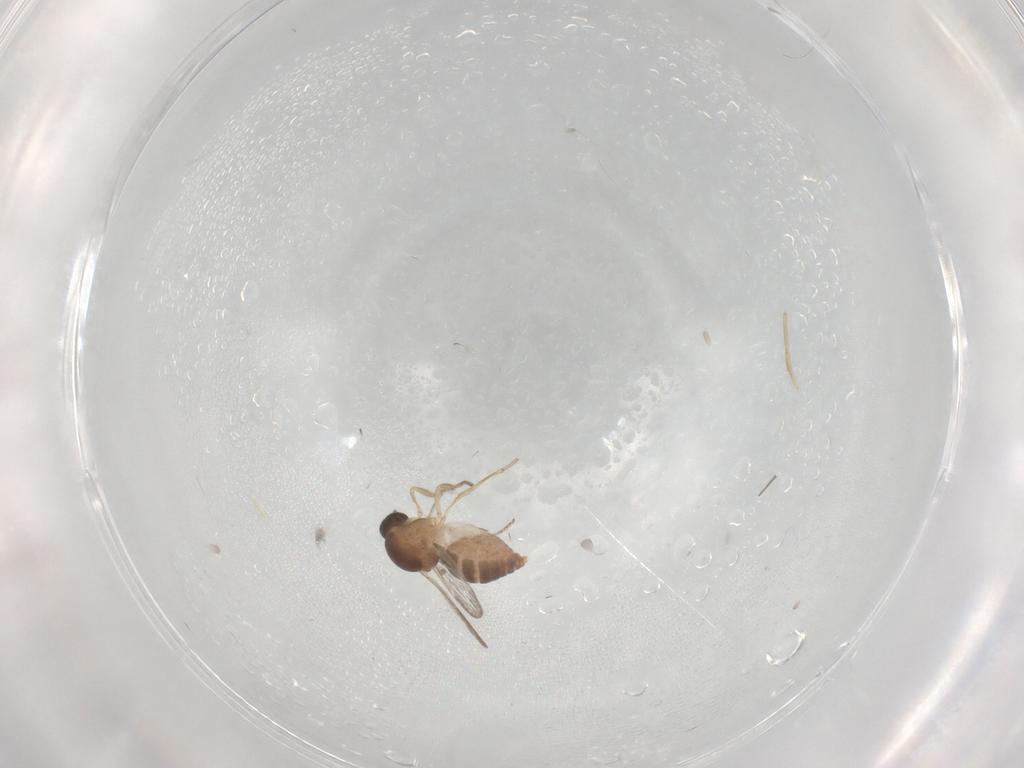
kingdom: Animalia
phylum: Arthropoda
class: Insecta
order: Diptera
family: Ceratopogonidae
